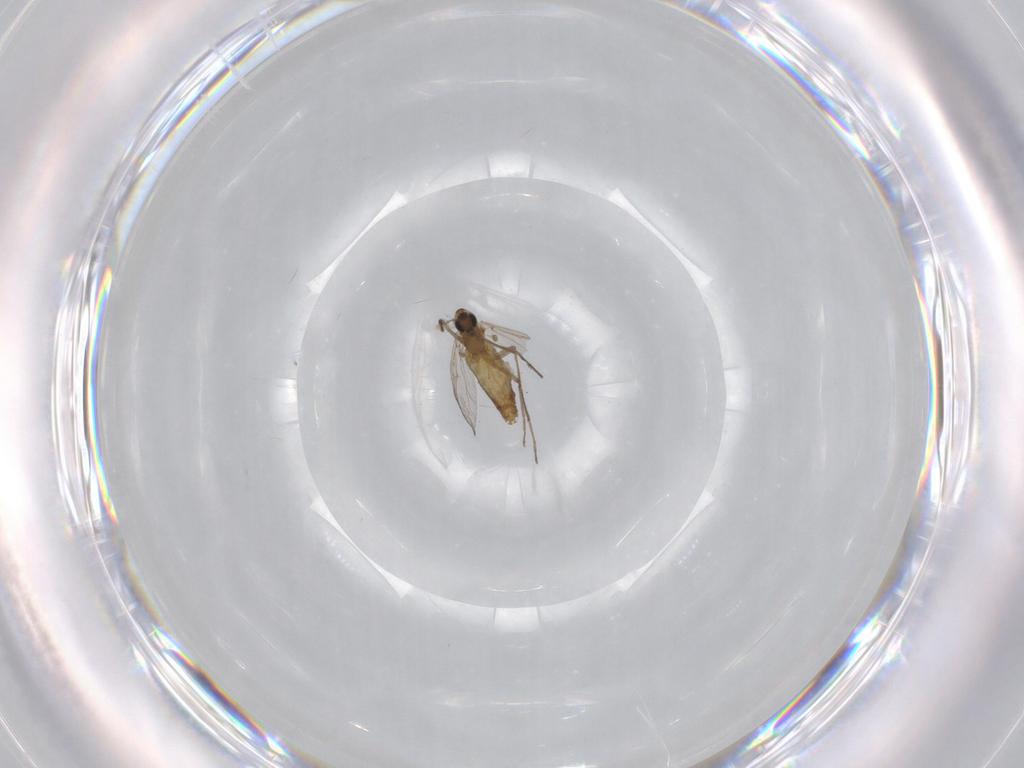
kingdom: Animalia
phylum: Arthropoda
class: Insecta
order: Diptera
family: Chironomidae
